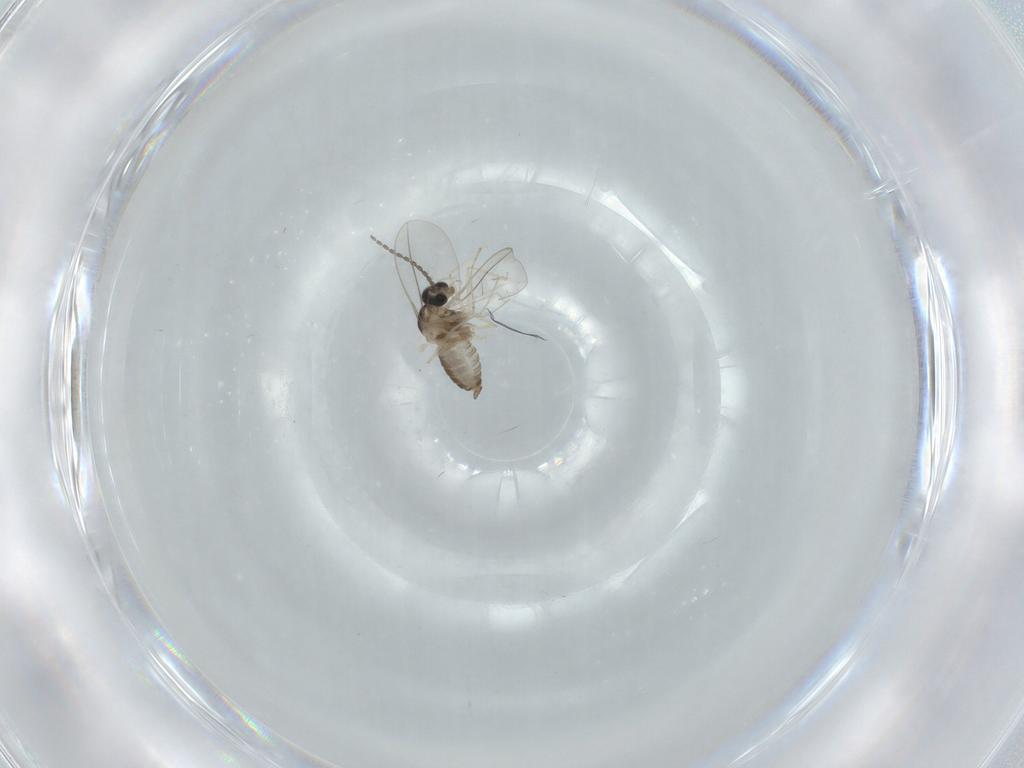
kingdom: Animalia
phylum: Arthropoda
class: Insecta
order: Diptera
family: Cecidomyiidae
